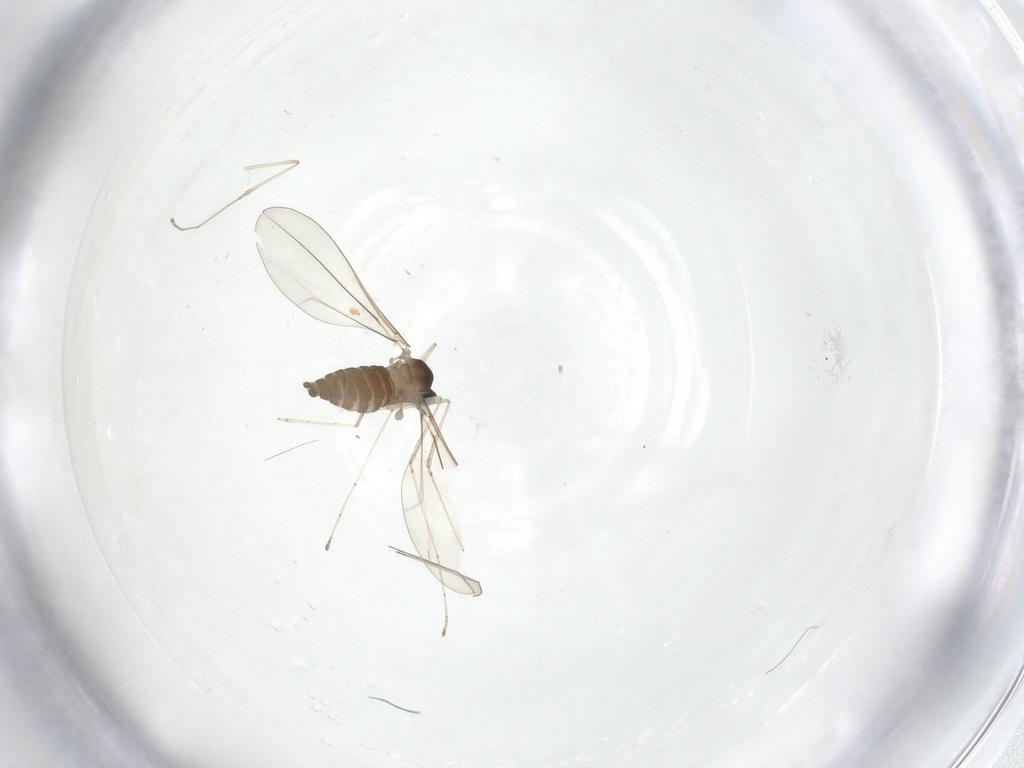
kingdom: Animalia
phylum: Arthropoda
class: Insecta
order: Diptera
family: Cecidomyiidae
